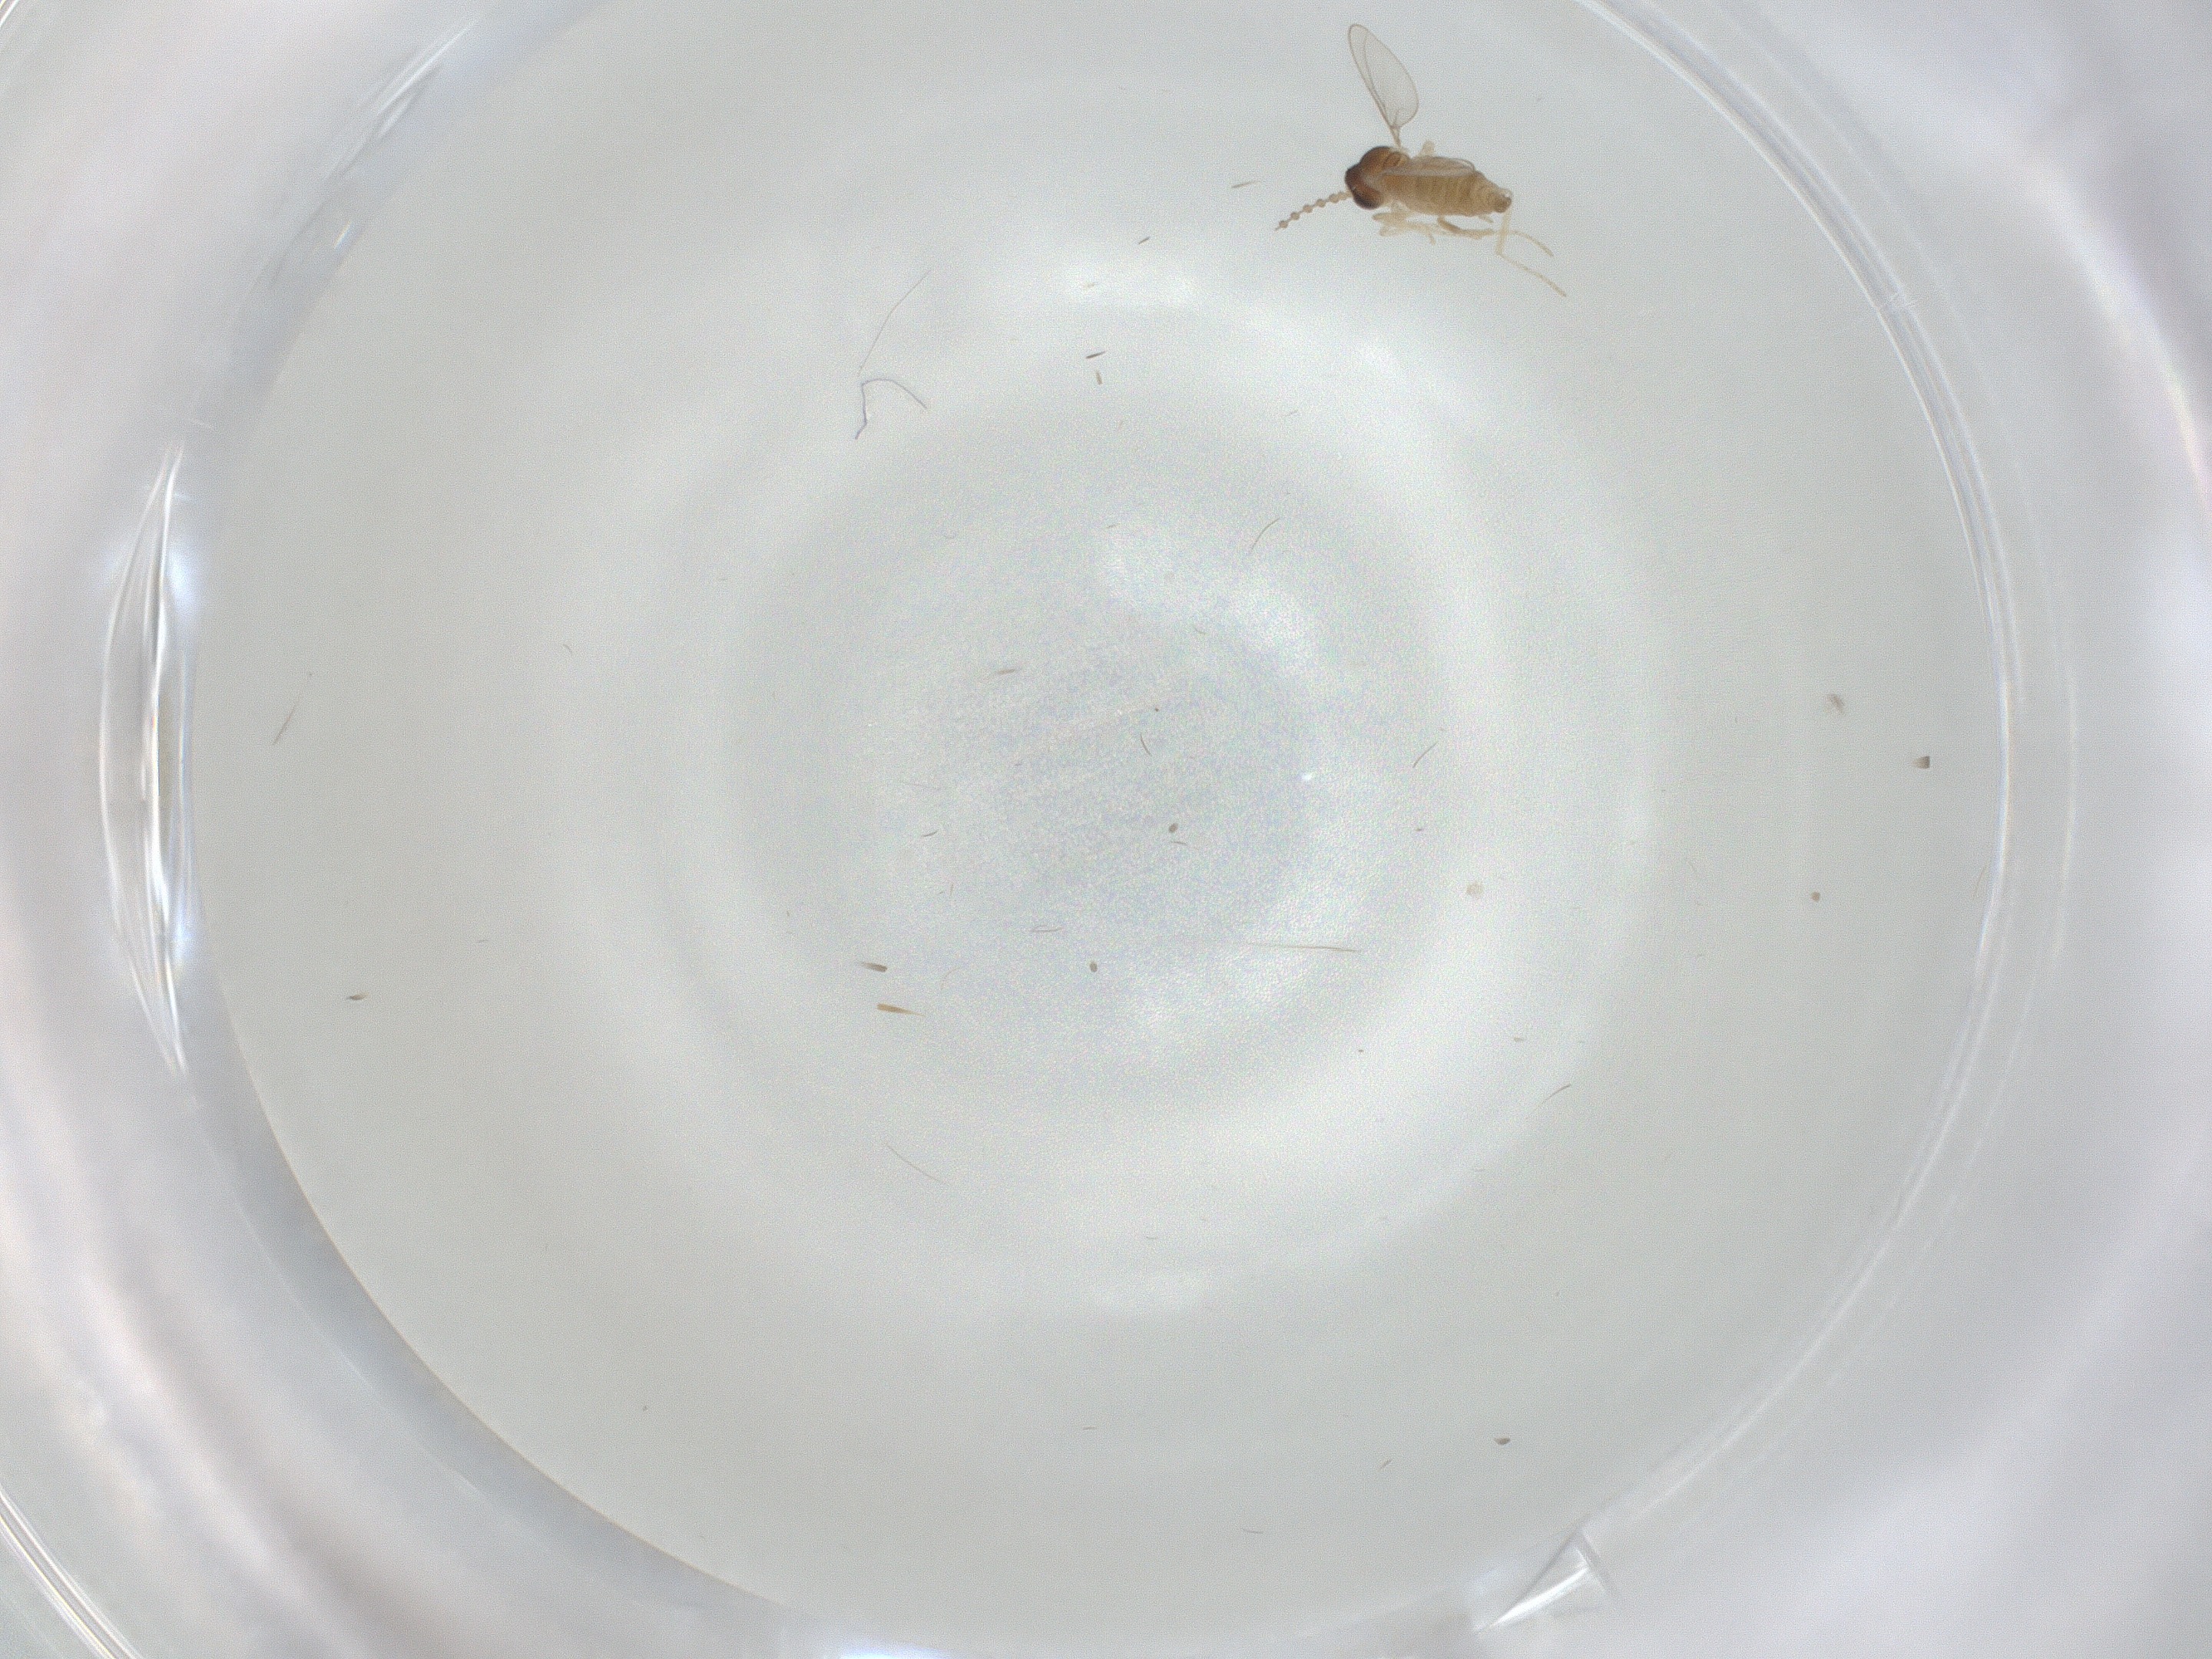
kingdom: Animalia
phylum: Arthropoda
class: Insecta
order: Diptera
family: Cecidomyiidae
